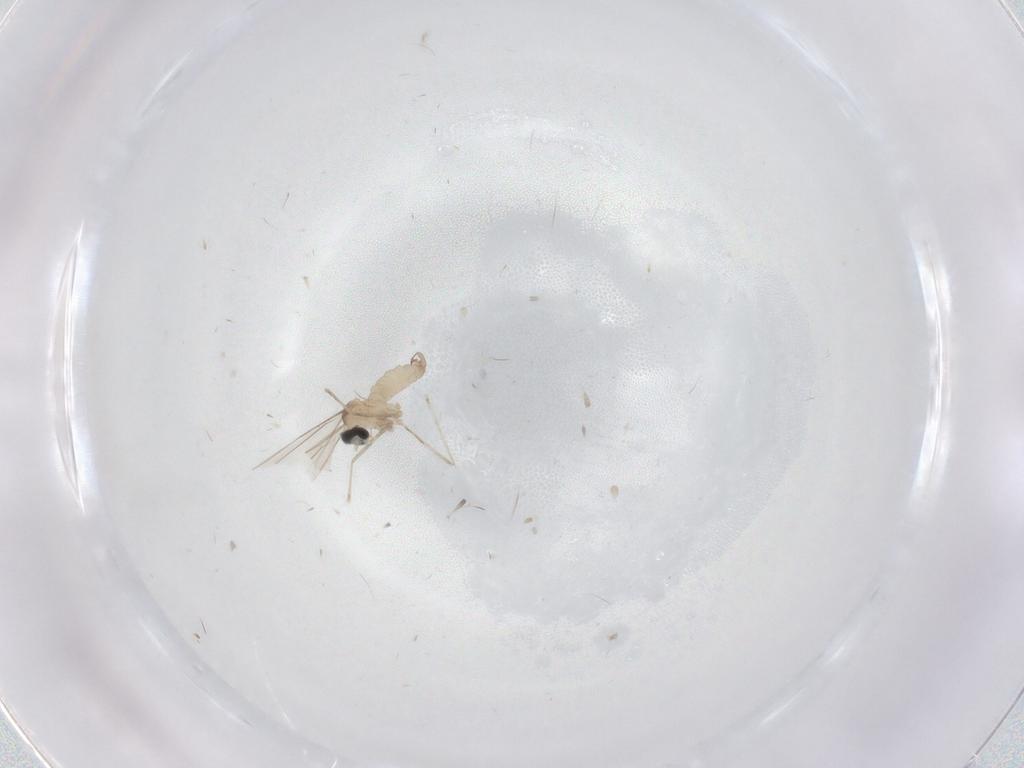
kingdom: Animalia
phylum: Arthropoda
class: Insecta
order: Diptera
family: Cecidomyiidae
